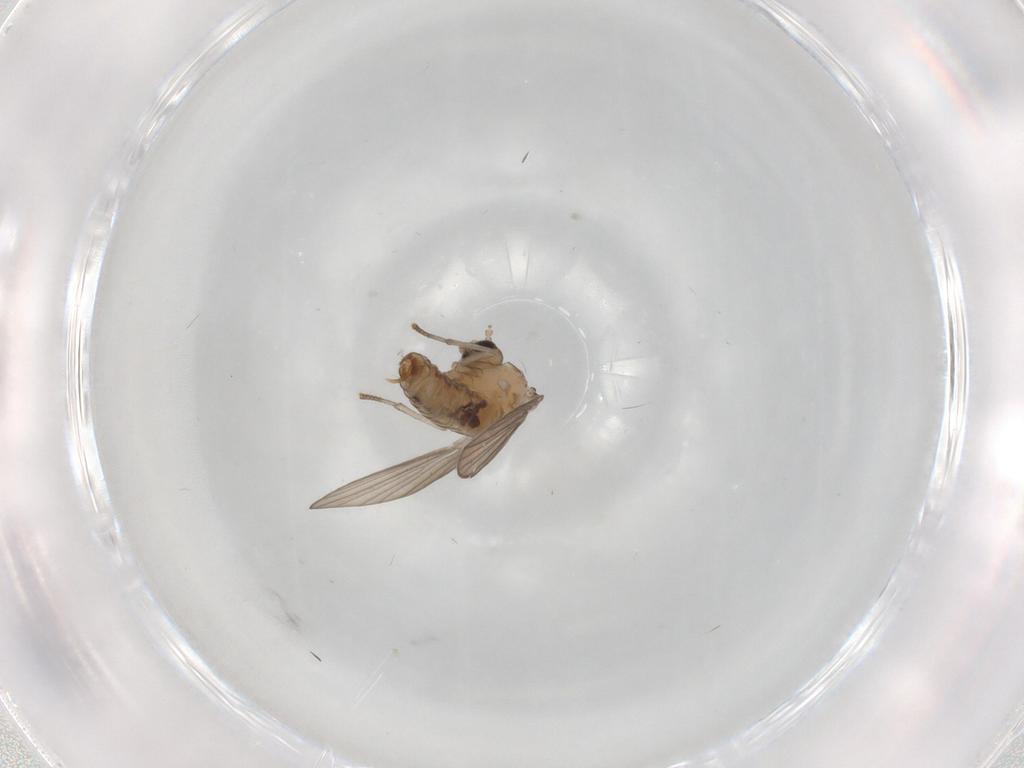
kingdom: Animalia
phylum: Arthropoda
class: Insecta
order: Diptera
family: Psychodidae
